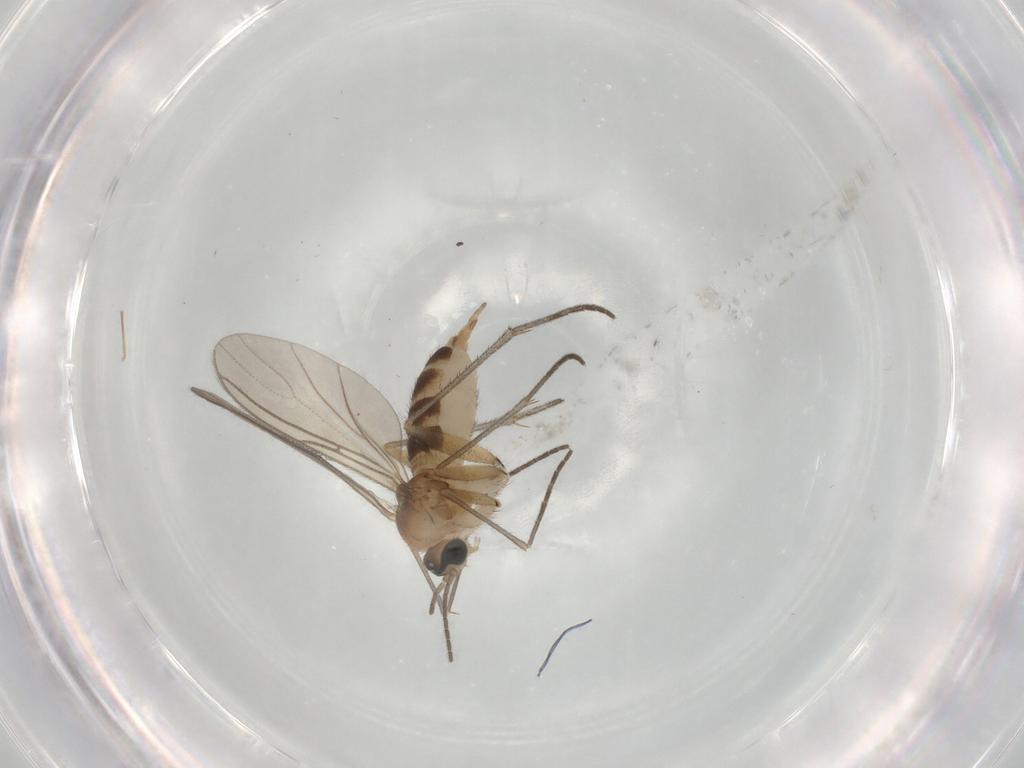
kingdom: Animalia
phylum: Arthropoda
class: Insecta
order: Diptera
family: Sciaridae
